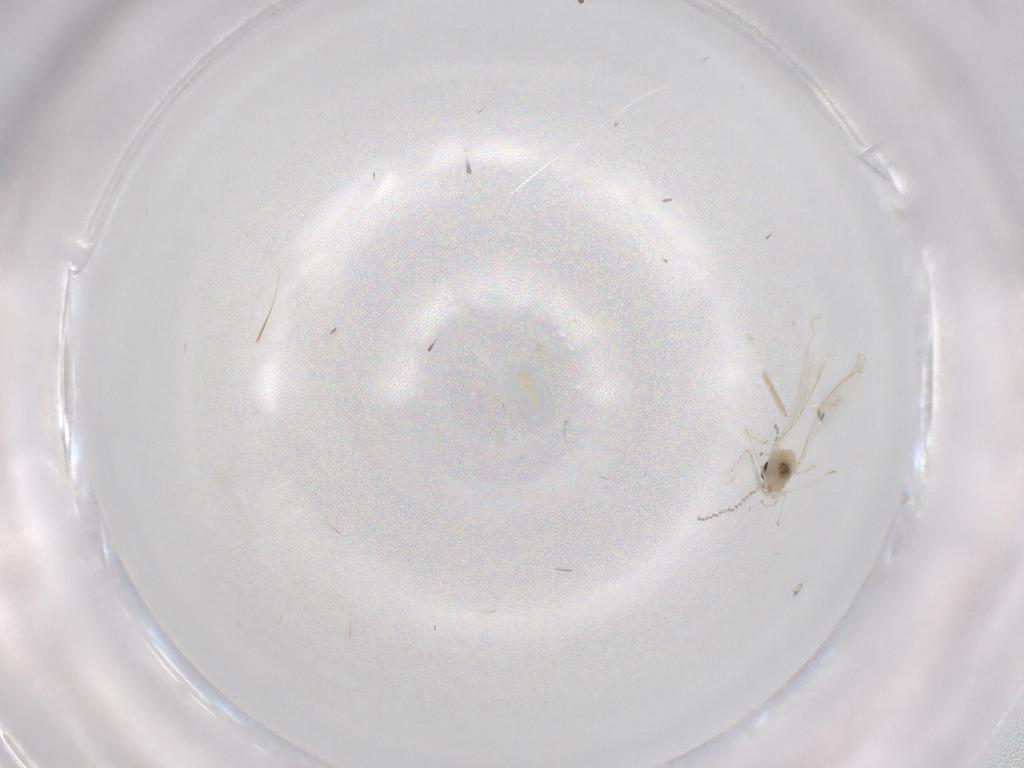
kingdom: Animalia
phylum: Arthropoda
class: Insecta
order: Diptera
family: Cecidomyiidae
